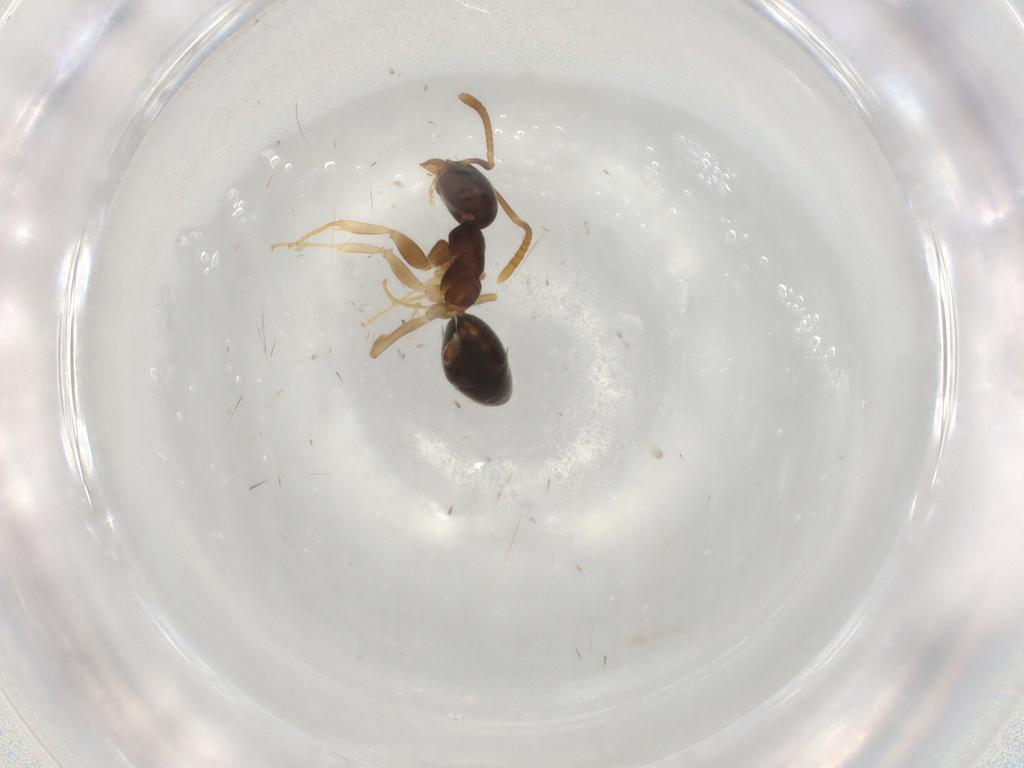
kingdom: Animalia
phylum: Arthropoda
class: Insecta
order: Hymenoptera
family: Formicidae
